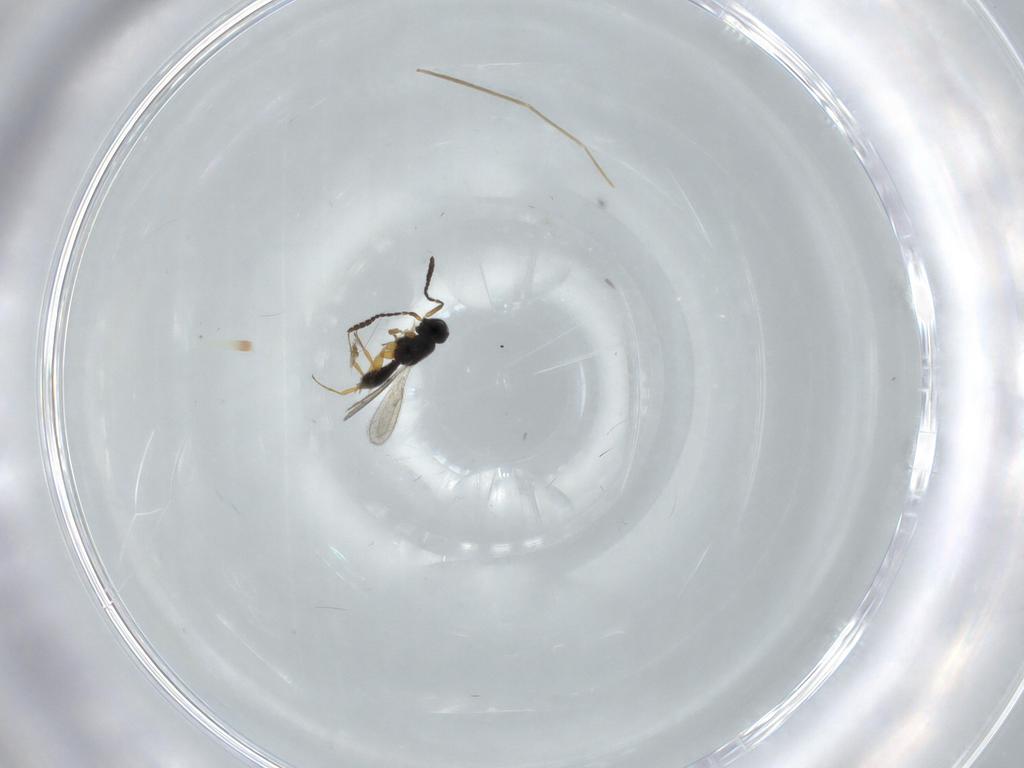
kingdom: Animalia
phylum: Arthropoda
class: Insecta
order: Hymenoptera
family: Scelionidae
